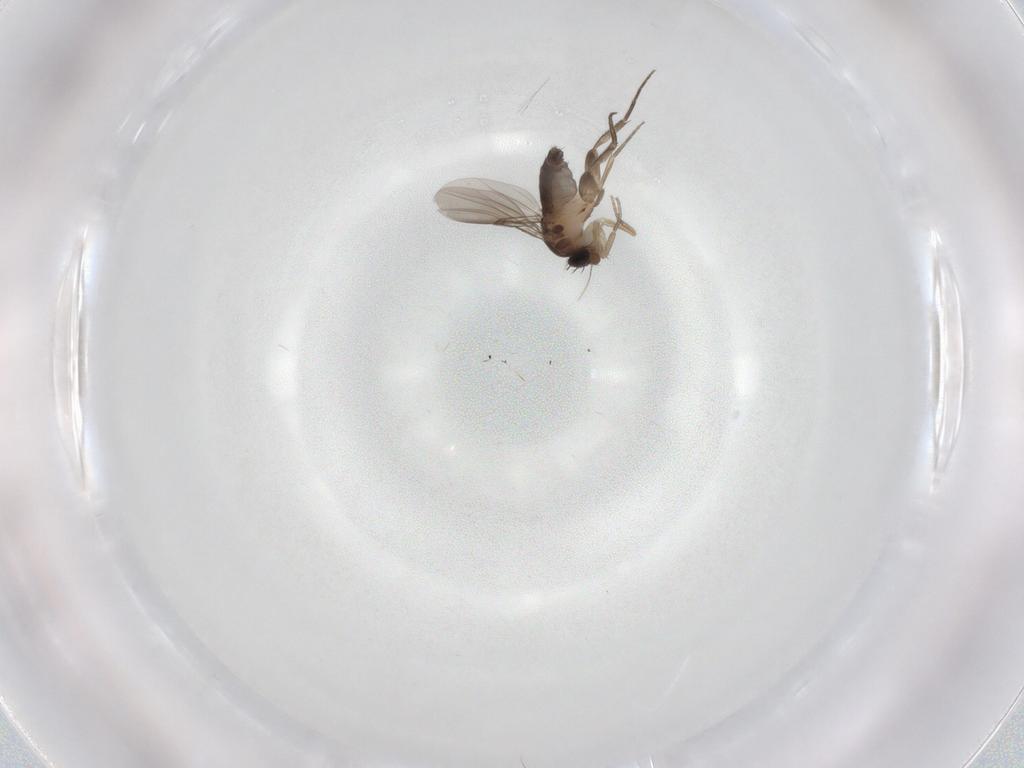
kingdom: Animalia
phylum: Arthropoda
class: Insecta
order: Diptera
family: Phoridae
